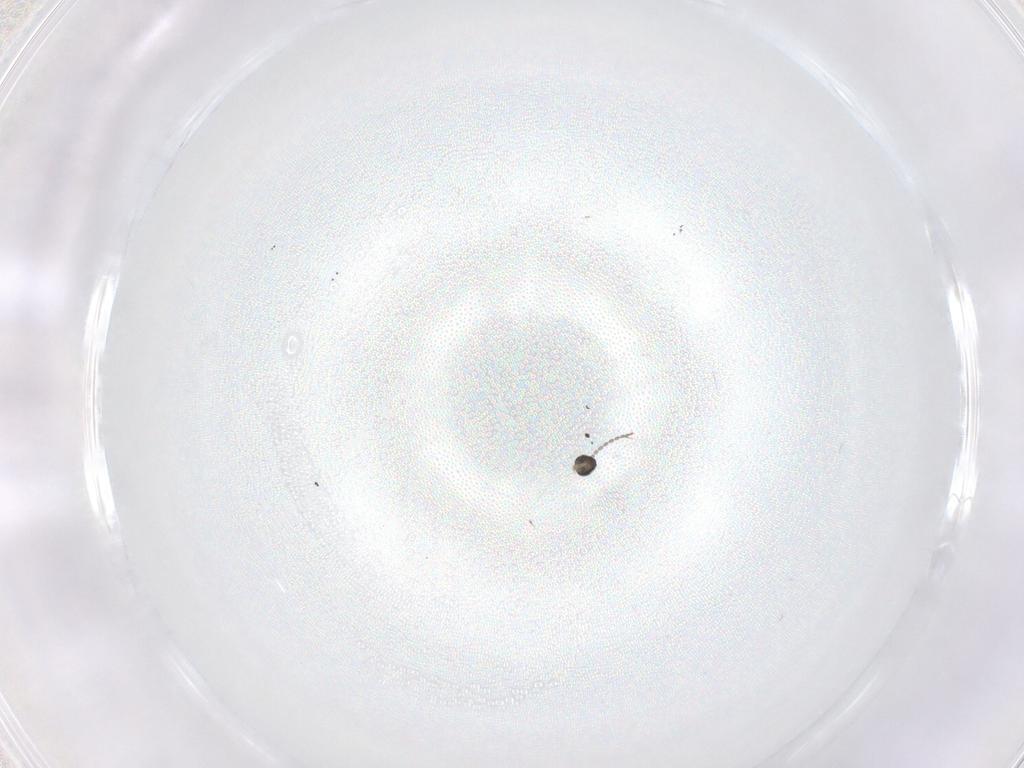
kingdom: Animalia
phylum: Arthropoda
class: Insecta
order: Diptera
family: Cecidomyiidae
